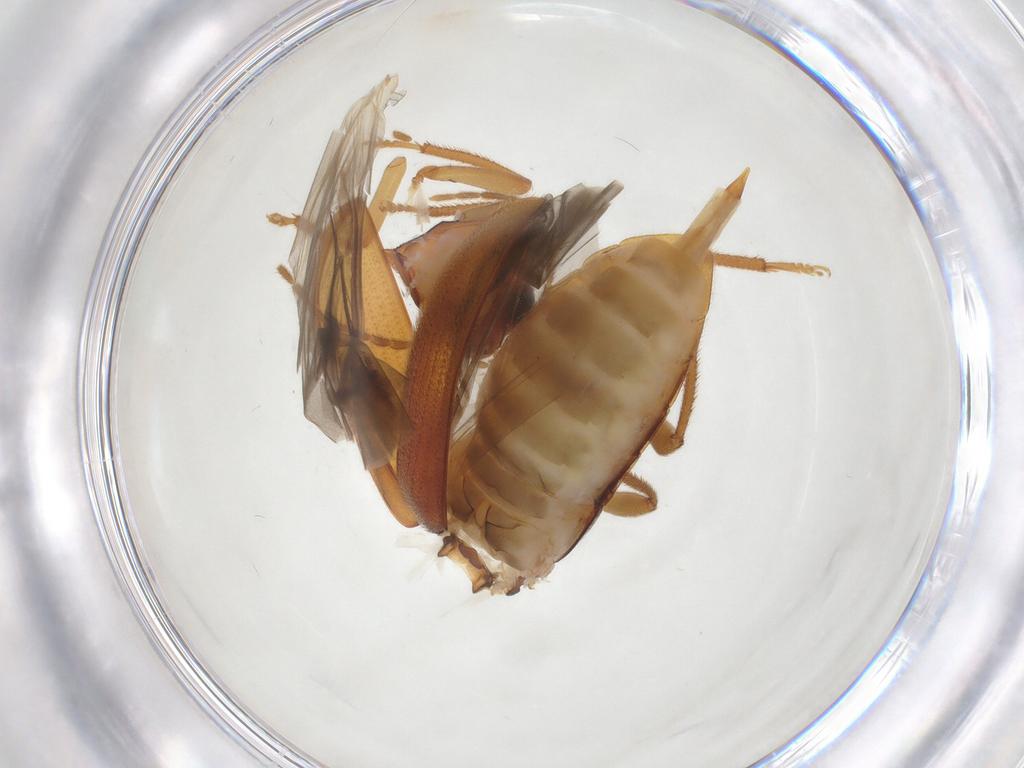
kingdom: Animalia
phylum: Arthropoda
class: Insecta
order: Coleoptera
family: Ptilodactylidae
